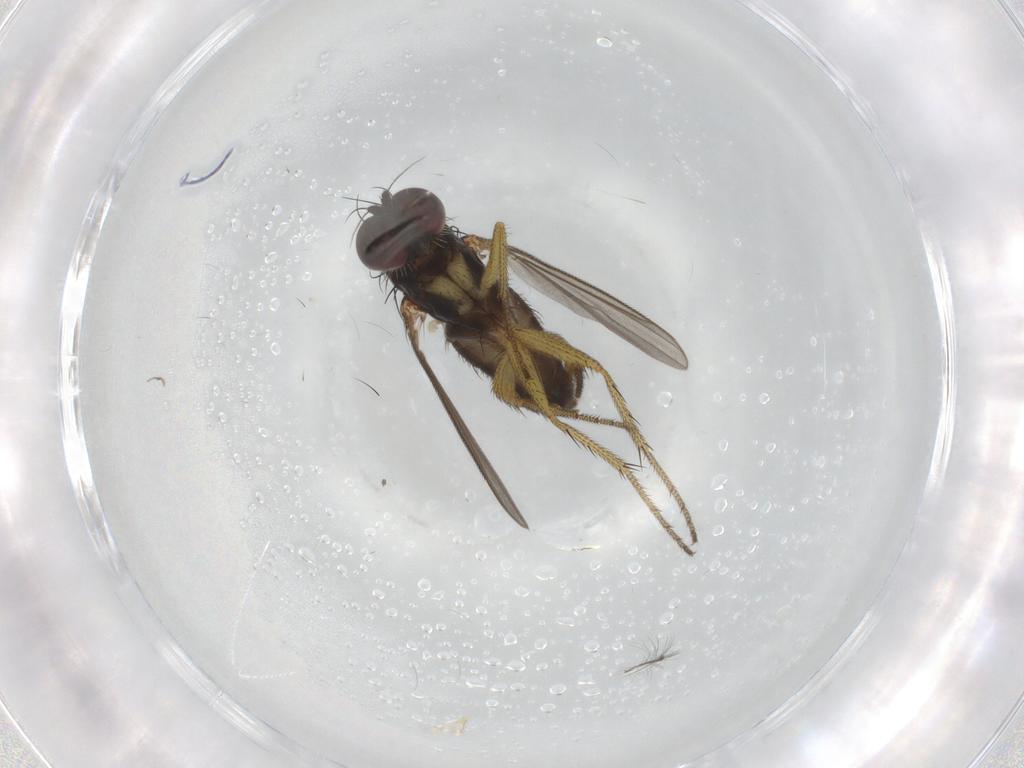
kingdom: Animalia
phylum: Arthropoda
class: Insecta
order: Diptera
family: Dolichopodidae
